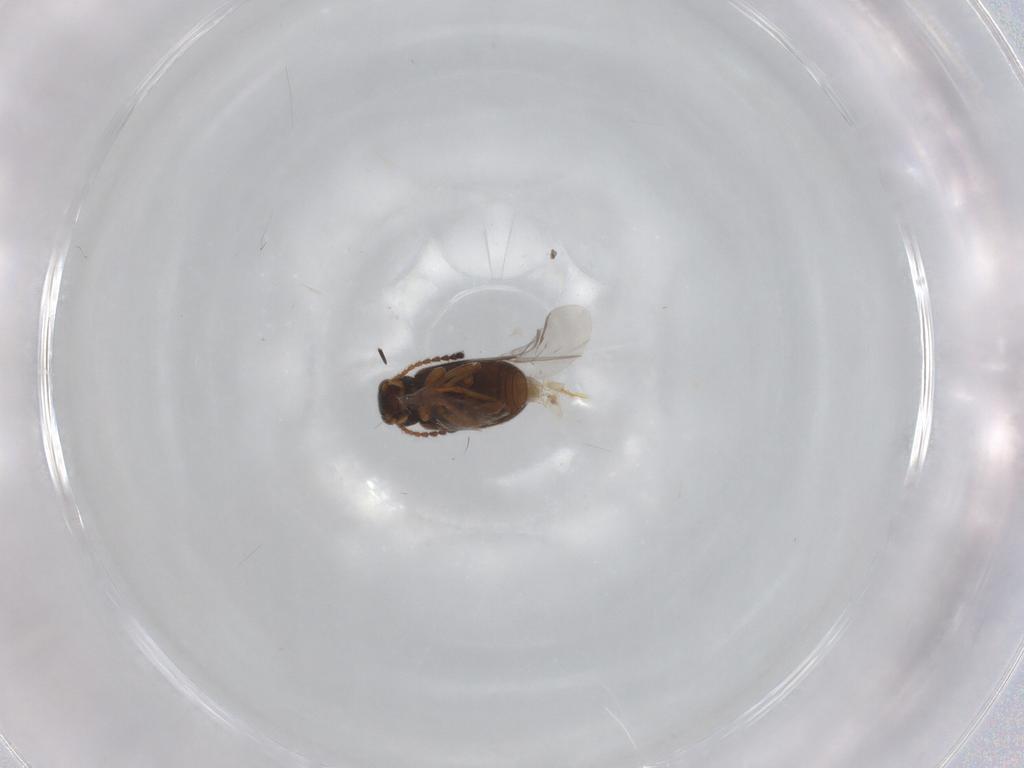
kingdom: Animalia
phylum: Arthropoda
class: Insecta
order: Coleoptera
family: Aderidae
